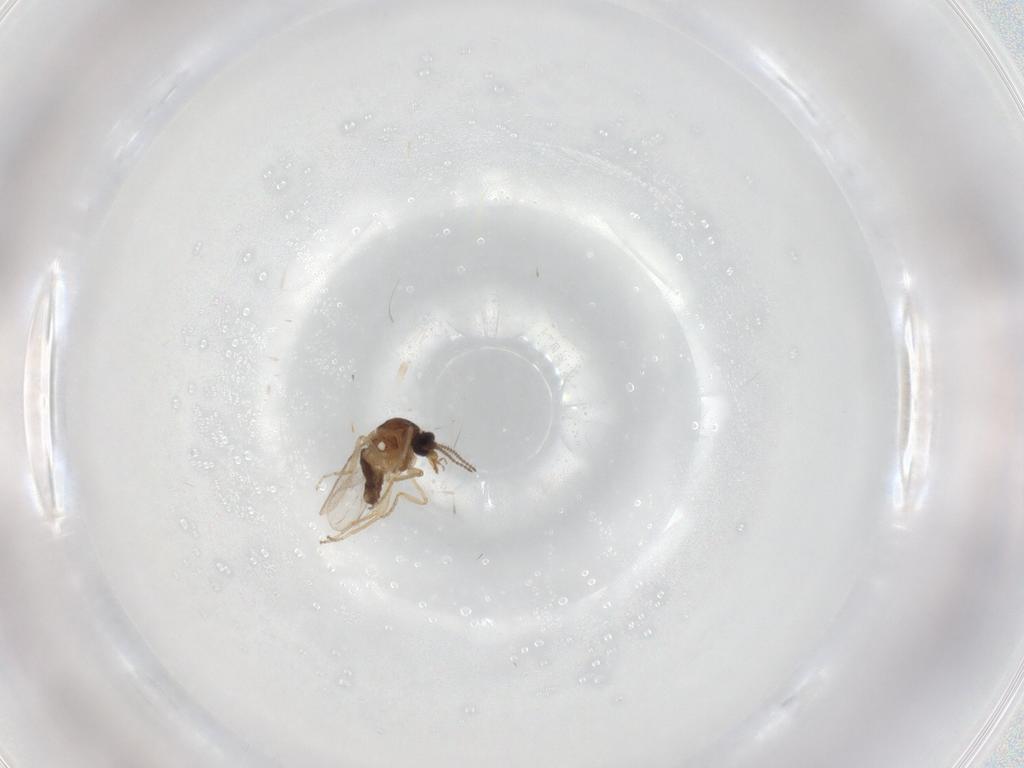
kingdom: Animalia
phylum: Arthropoda
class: Insecta
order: Diptera
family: Ceratopogonidae
